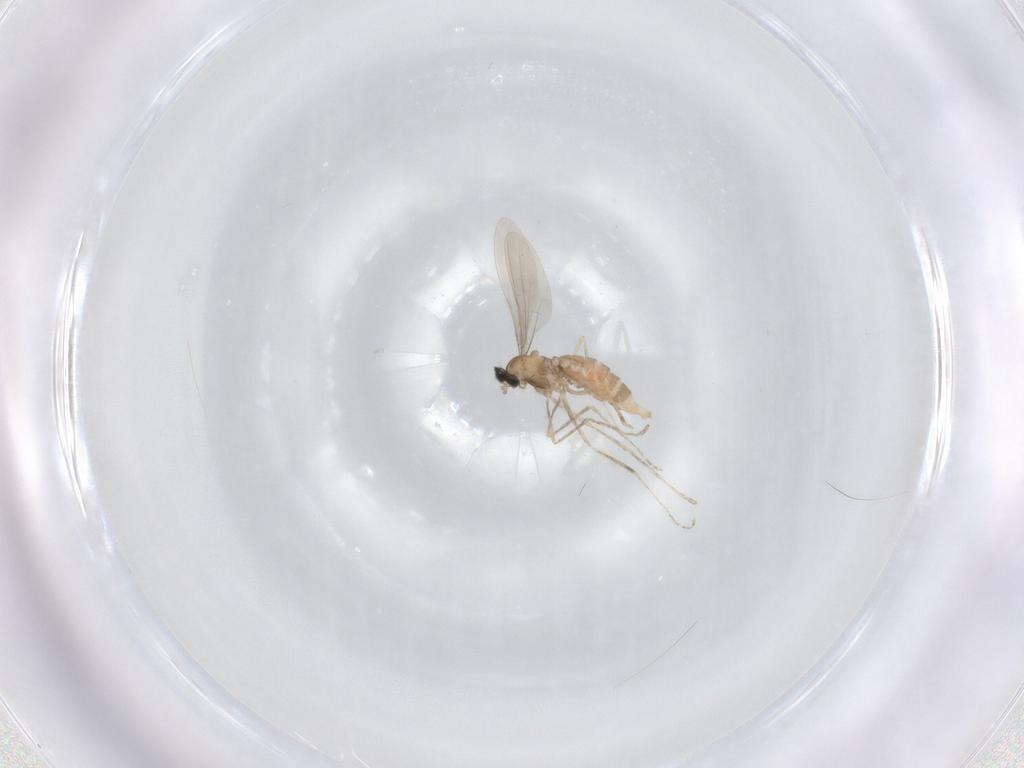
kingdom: Animalia
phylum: Arthropoda
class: Insecta
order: Diptera
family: Cecidomyiidae
